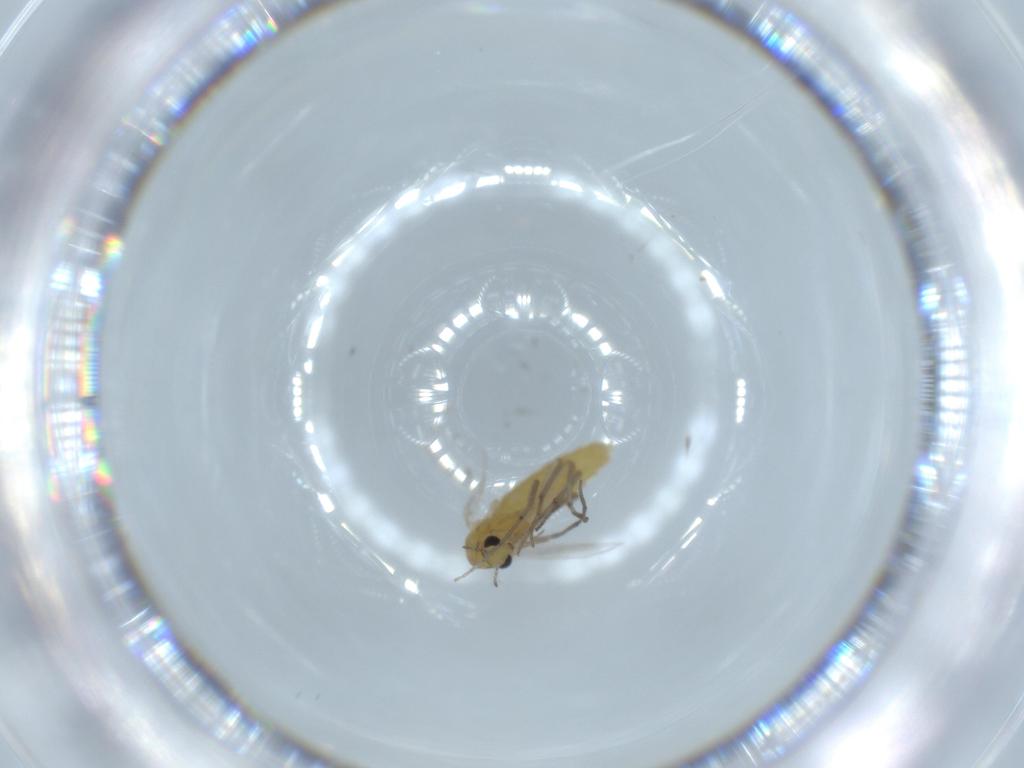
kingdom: Animalia
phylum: Arthropoda
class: Insecta
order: Diptera
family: Chironomidae
